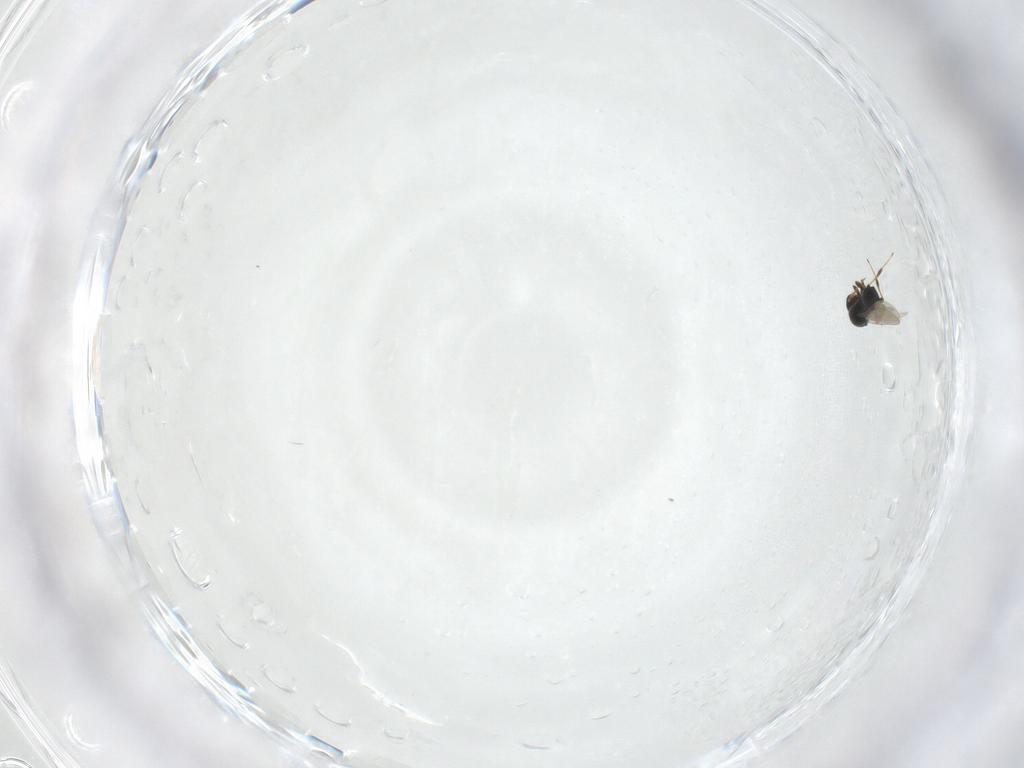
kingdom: Animalia
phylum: Arthropoda
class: Insecta
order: Hymenoptera
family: Platygastridae
